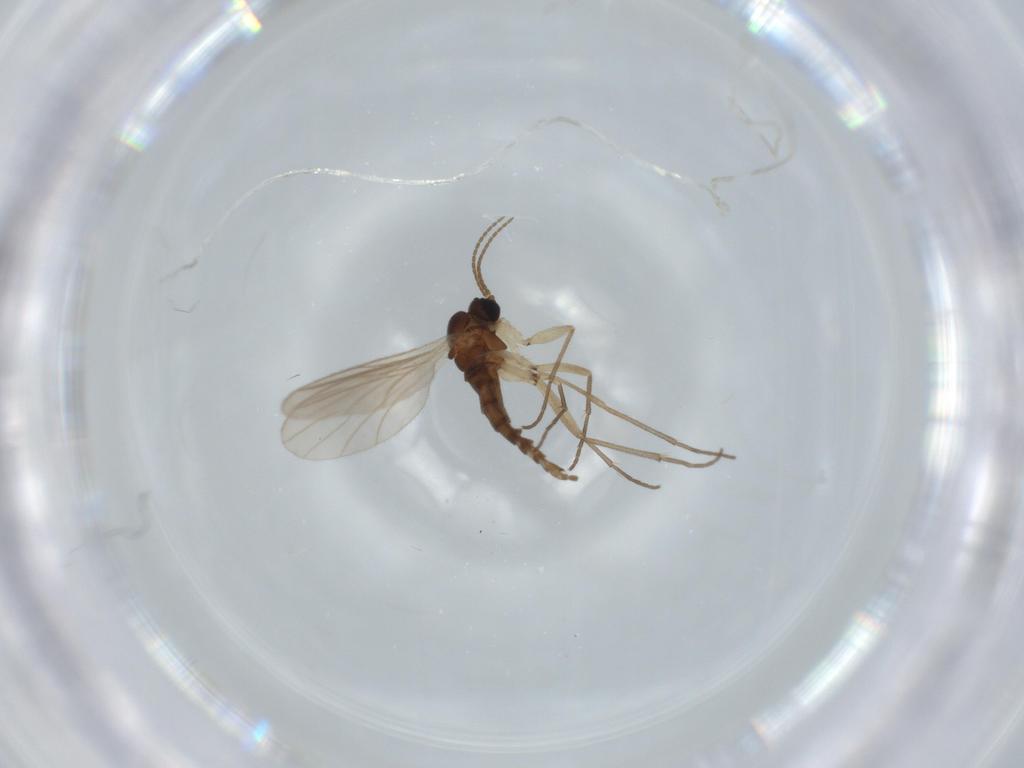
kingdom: Animalia
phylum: Arthropoda
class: Insecta
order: Diptera
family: Sciaridae
